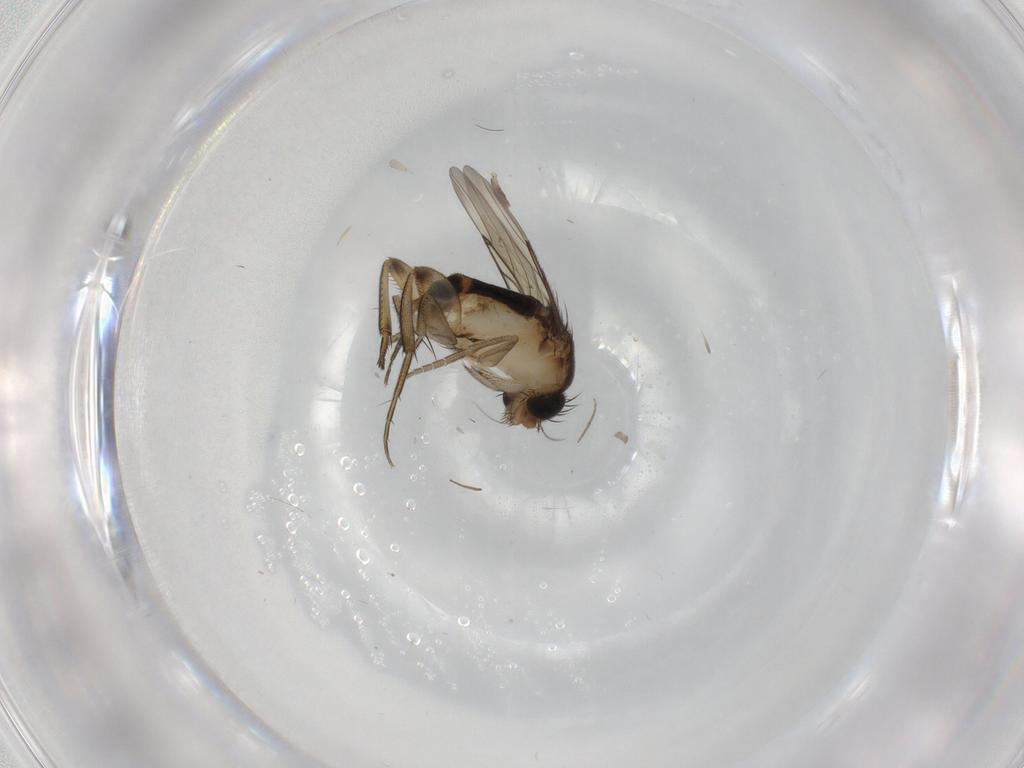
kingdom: Animalia
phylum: Arthropoda
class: Insecta
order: Diptera
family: Phoridae
